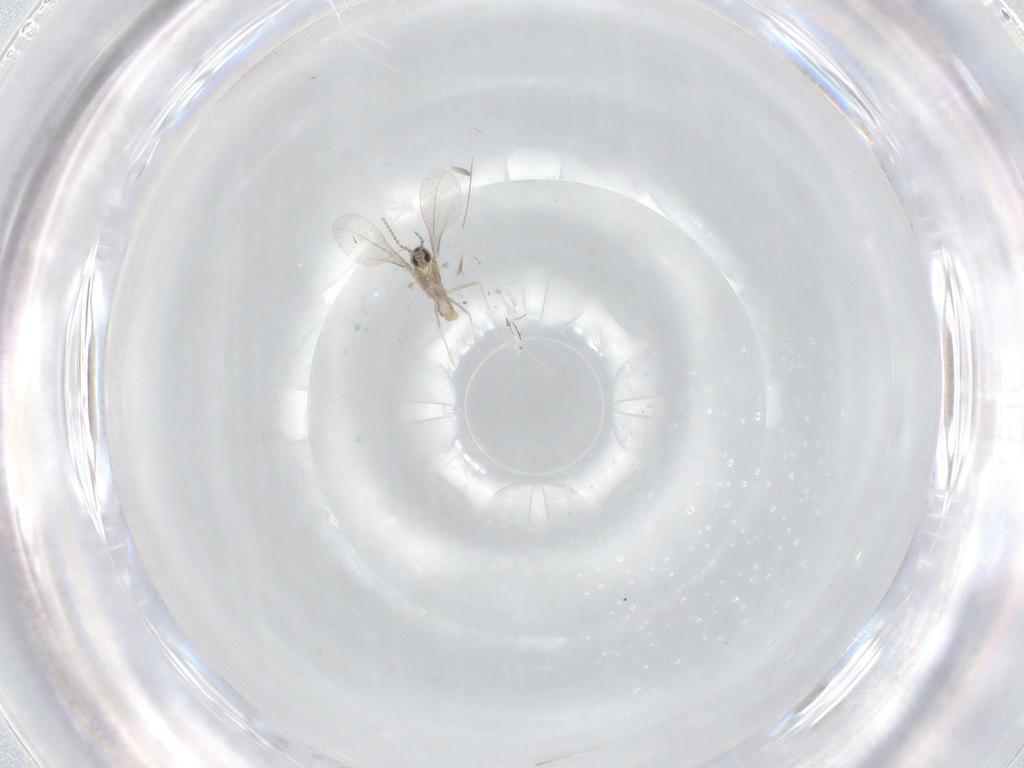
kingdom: Animalia
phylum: Arthropoda
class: Insecta
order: Diptera
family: Cecidomyiidae
